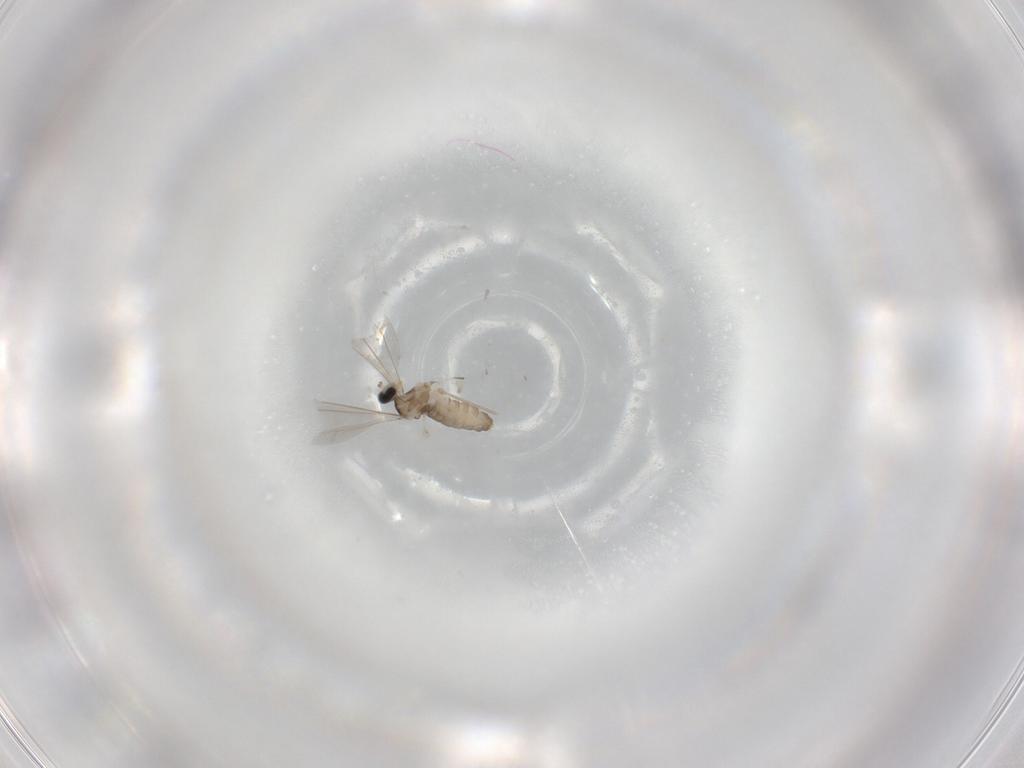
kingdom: Animalia
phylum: Arthropoda
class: Insecta
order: Diptera
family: Cecidomyiidae
